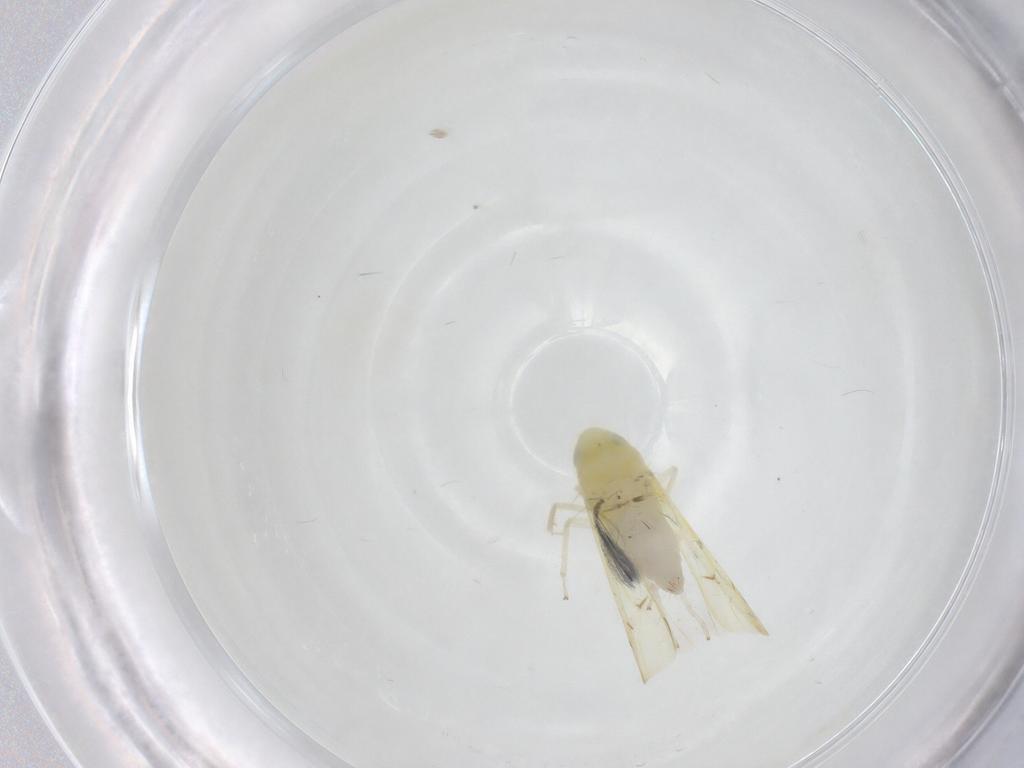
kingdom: Animalia
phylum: Arthropoda
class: Insecta
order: Hemiptera
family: Cicadellidae
